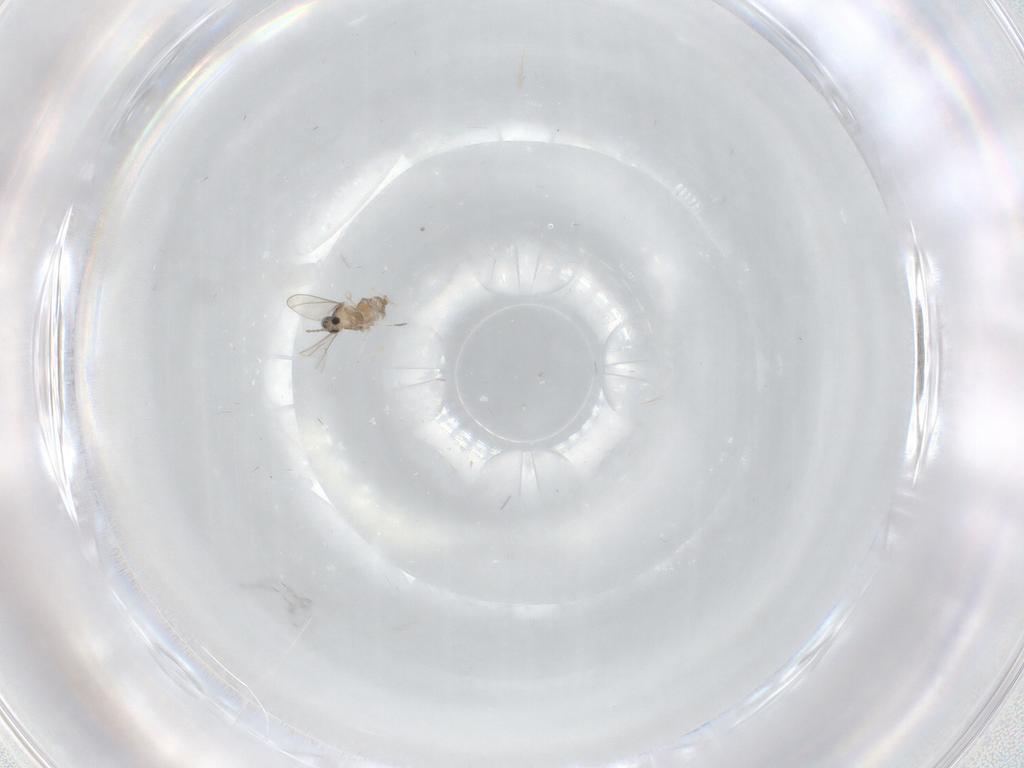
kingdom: Animalia
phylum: Arthropoda
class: Insecta
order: Diptera
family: Cecidomyiidae
